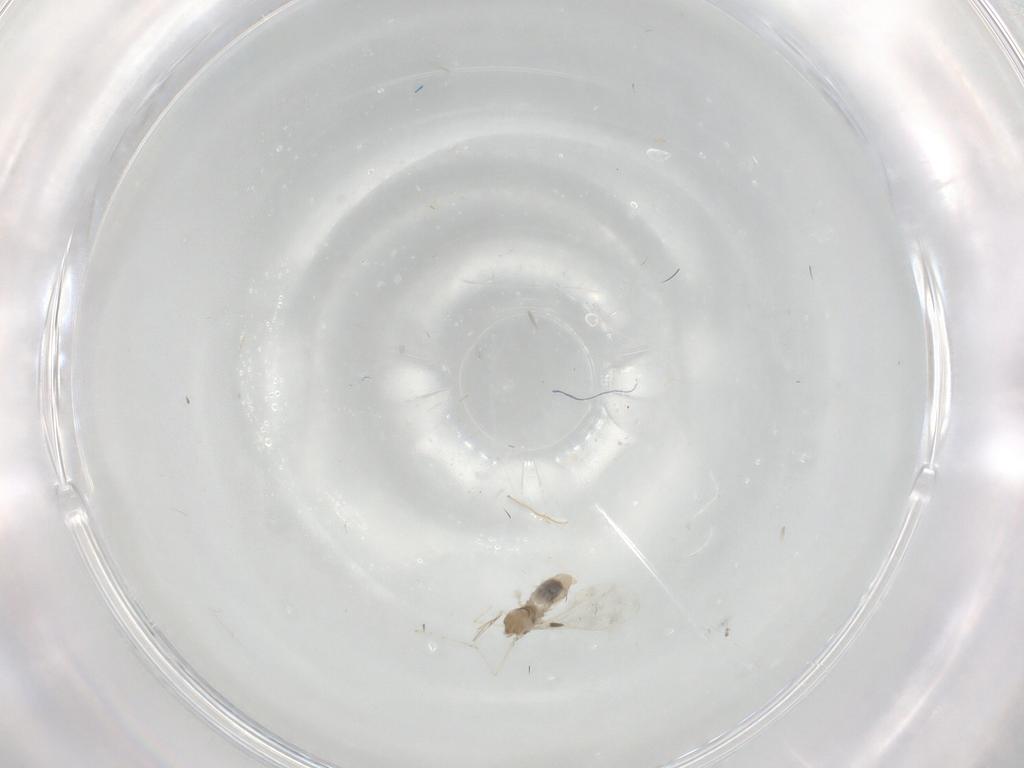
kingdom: Animalia
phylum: Arthropoda
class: Insecta
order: Diptera
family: Cecidomyiidae
